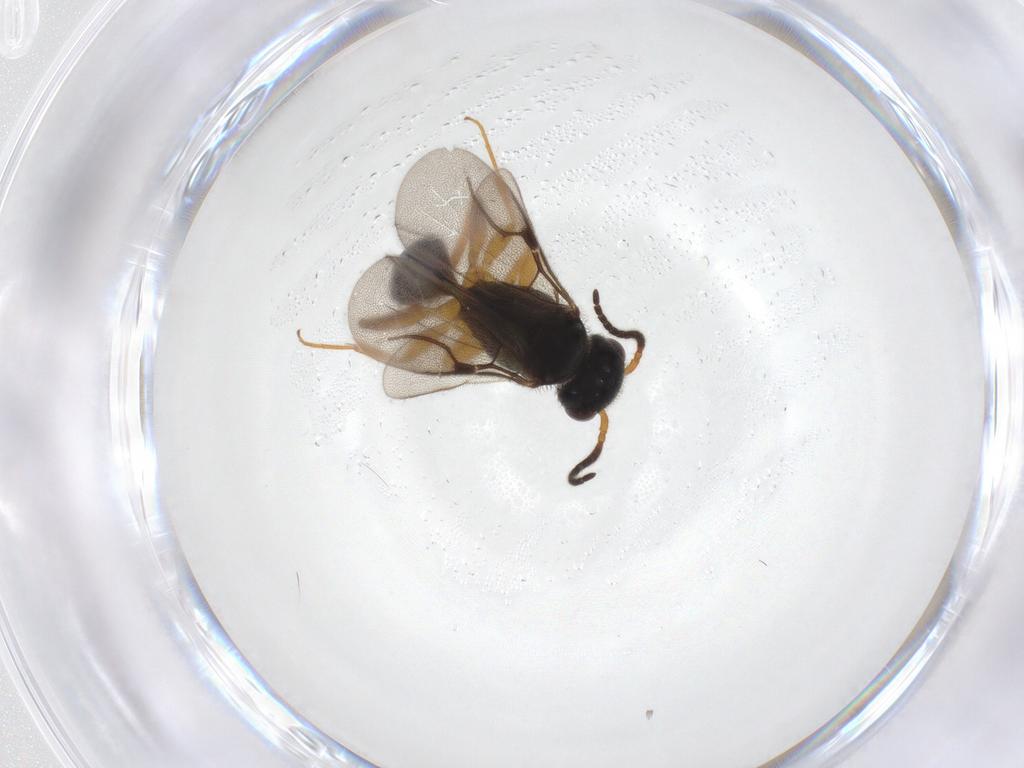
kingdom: Animalia
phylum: Arthropoda
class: Insecta
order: Hymenoptera
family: Bethylidae
